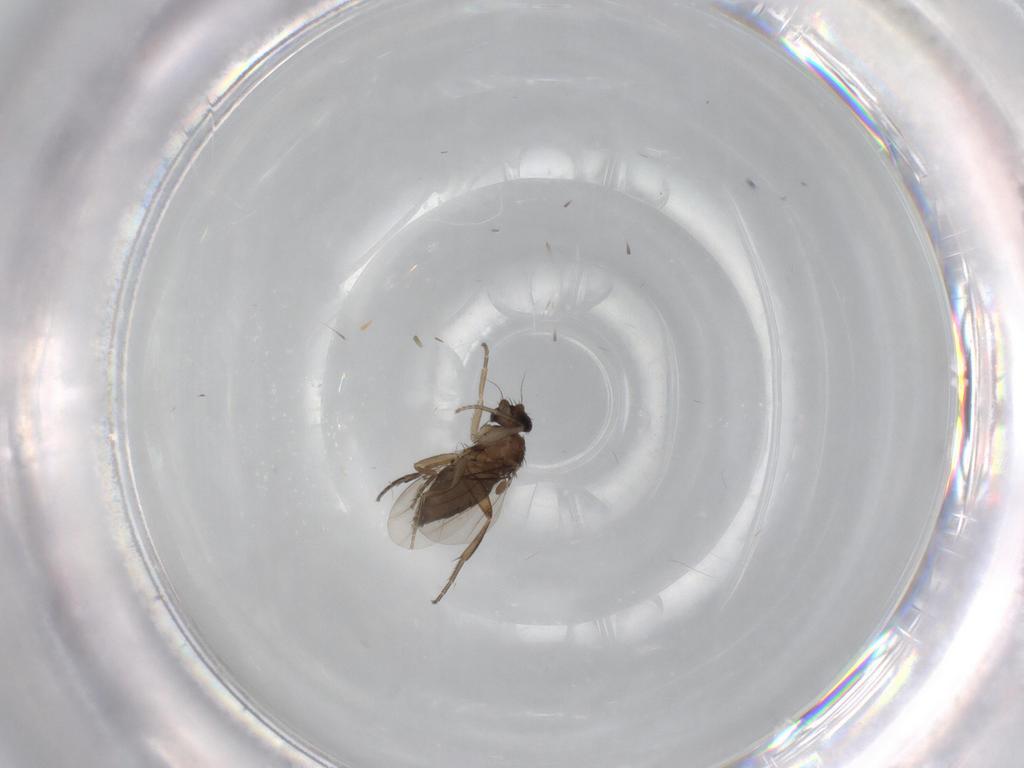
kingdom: Animalia
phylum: Arthropoda
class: Insecta
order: Diptera
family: Phoridae
